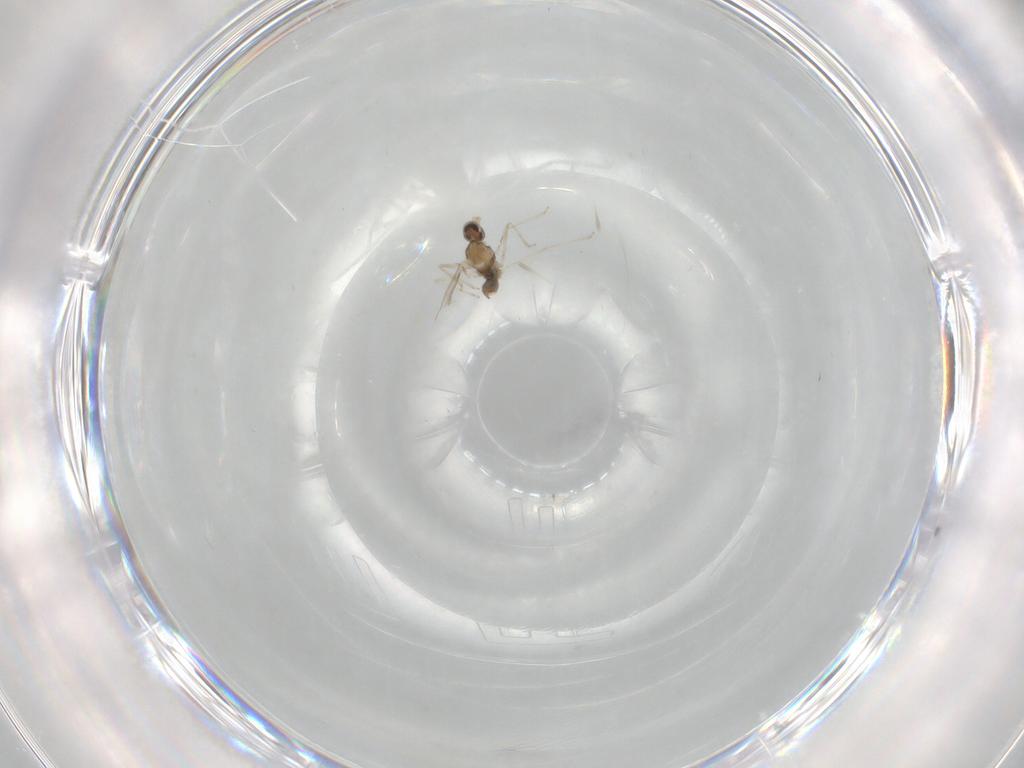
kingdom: Animalia
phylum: Arthropoda
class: Insecta
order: Diptera
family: Cecidomyiidae
